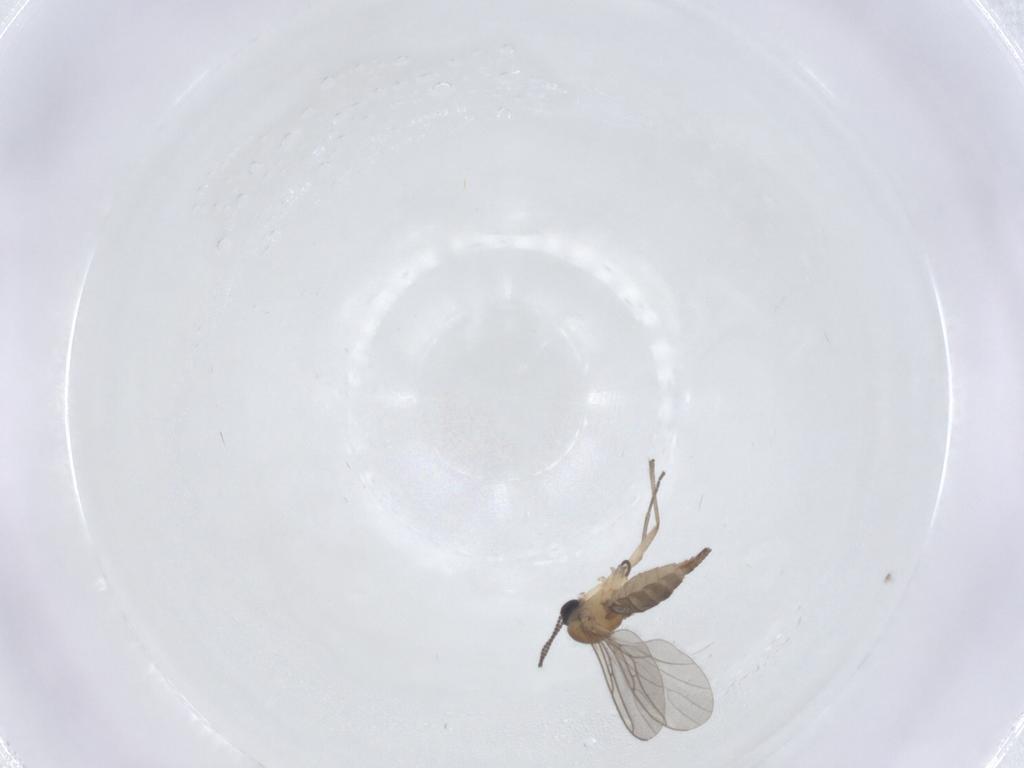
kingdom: Animalia
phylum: Arthropoda
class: Insecta
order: Diptera
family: Sciaridae
